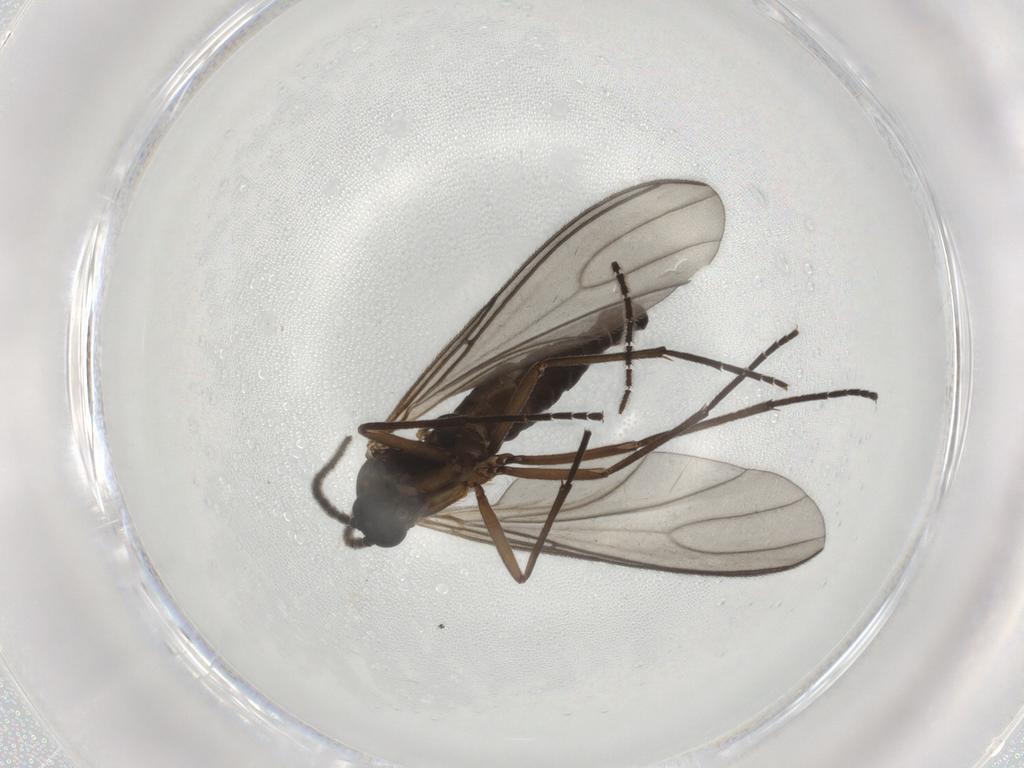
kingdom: Animalia
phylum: Arthropoda
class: Insecta
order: Diptera
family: Sciaridae
